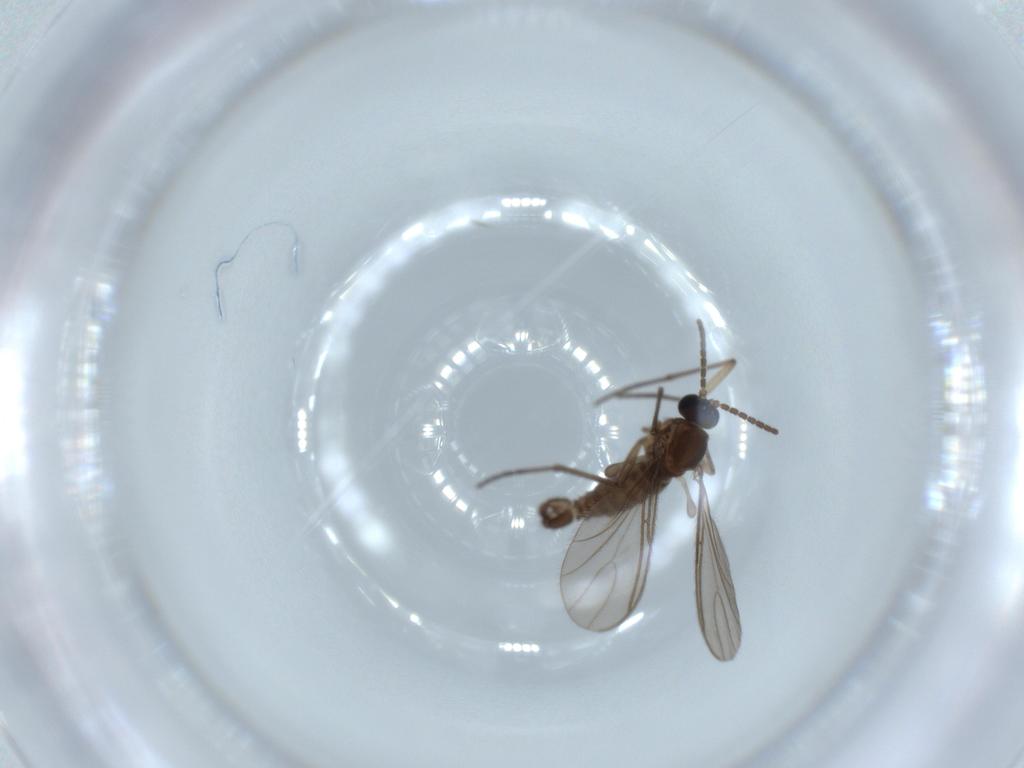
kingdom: Animalia
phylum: Arthropoda
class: Insecta
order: Diptera
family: Sciaridae
